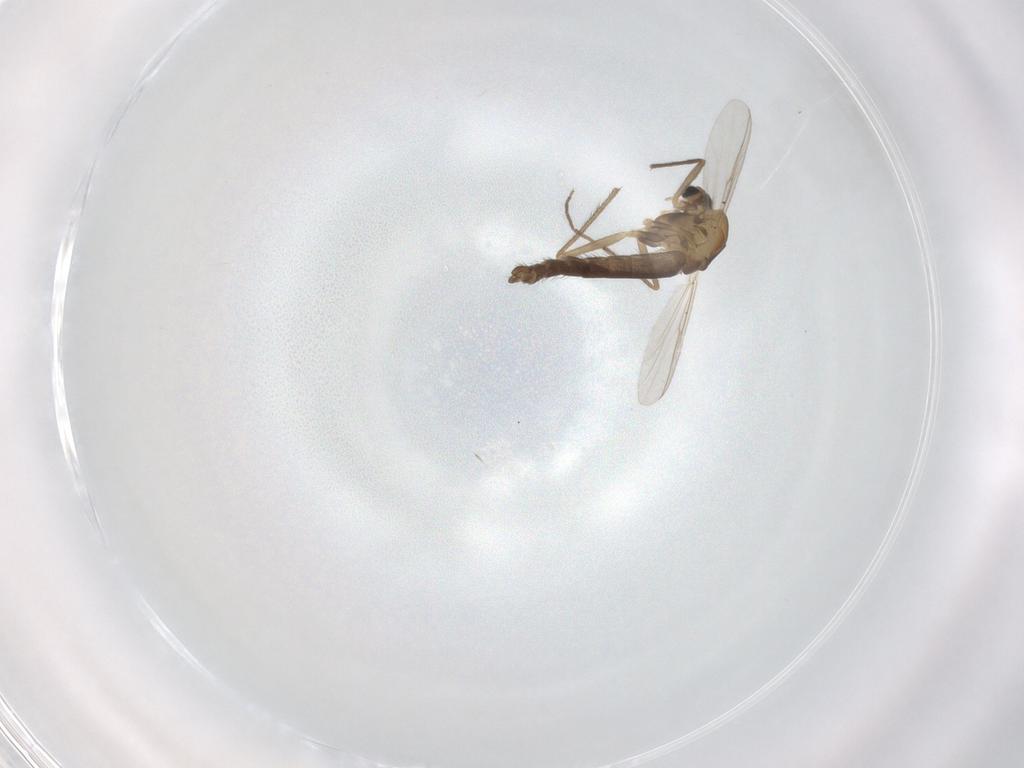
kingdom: Animalia
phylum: Arthropoda
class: Insecta
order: Diptera
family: Chironomidae
